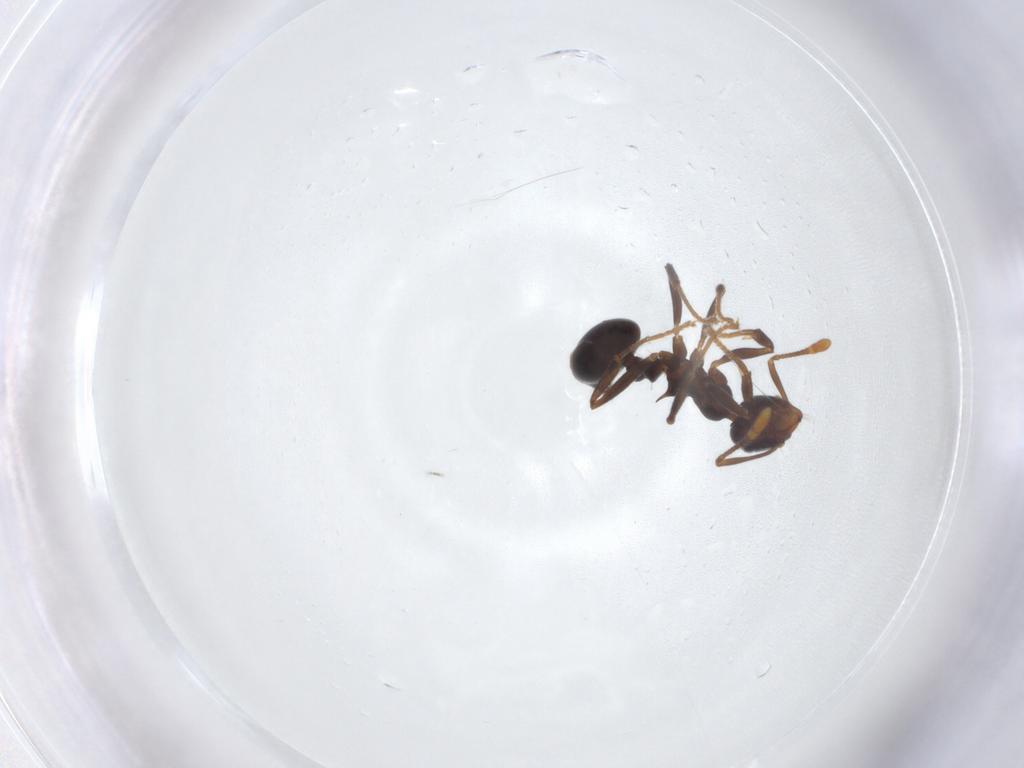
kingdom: Animalia
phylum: Arthropoda
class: Insecta
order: Hymenoptera
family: Formicidae
